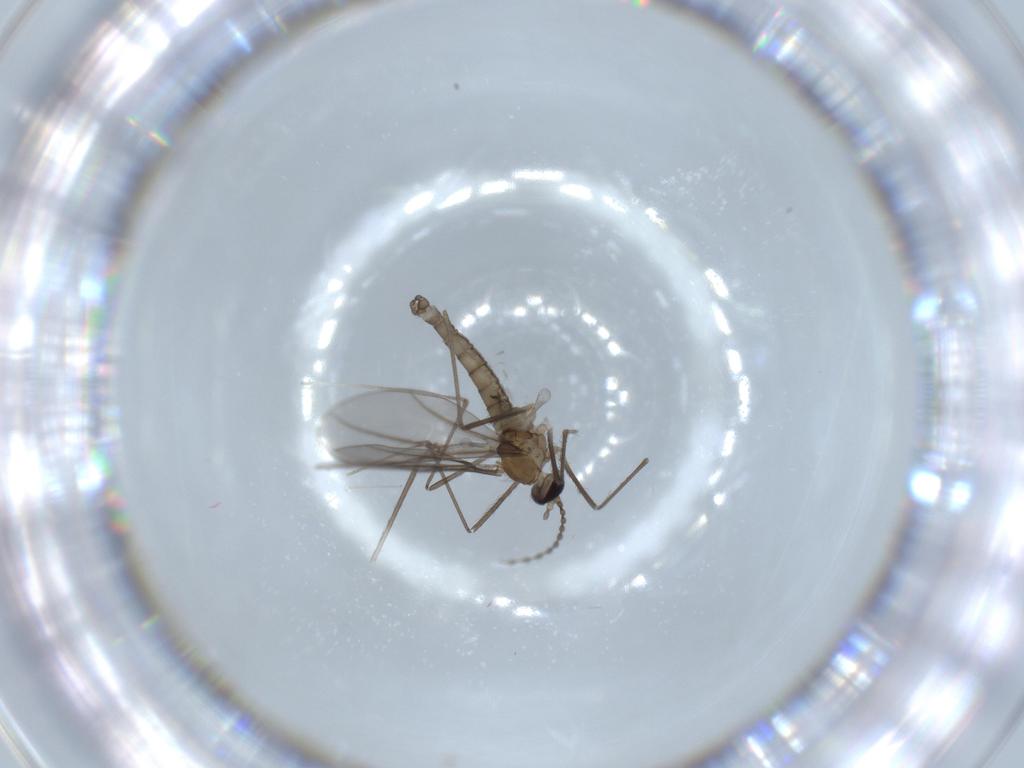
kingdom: Animalia
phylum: Arthropoda
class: Insecta
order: Diptera
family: Cecidomyiidae
